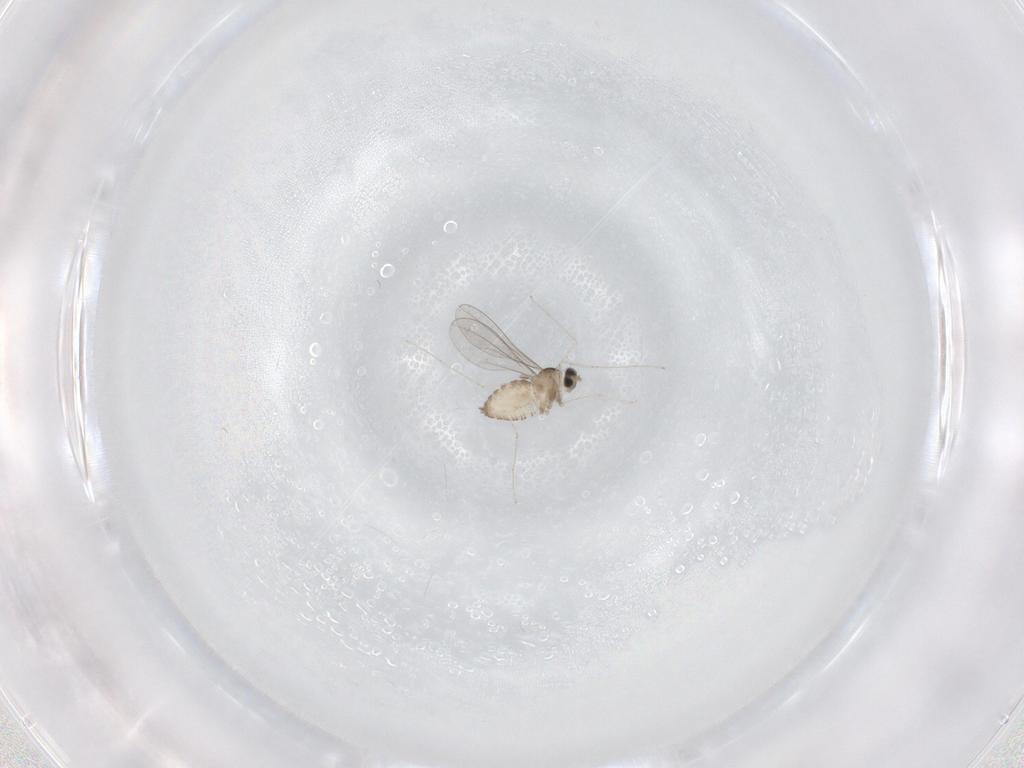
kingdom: Animalia
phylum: Arthropoda
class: Insecta
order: Diptera
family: Cecidomyiidae
